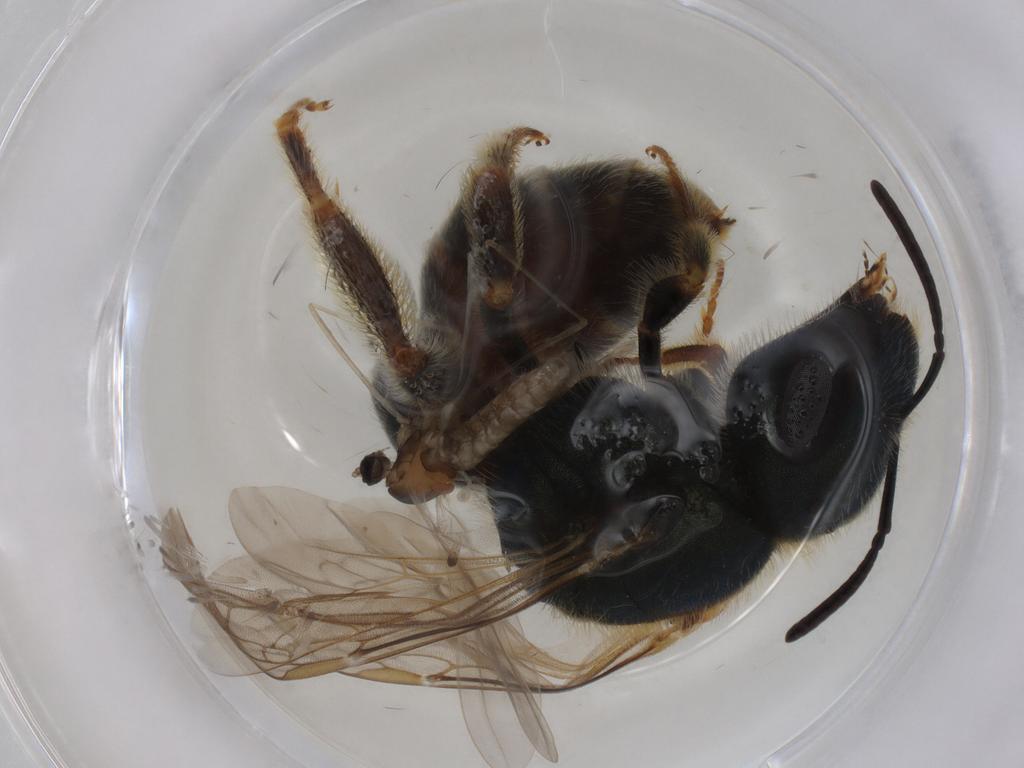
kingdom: Animalia
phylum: Arthropoda
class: Insecta
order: Diptera
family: Cecidomyiidae
